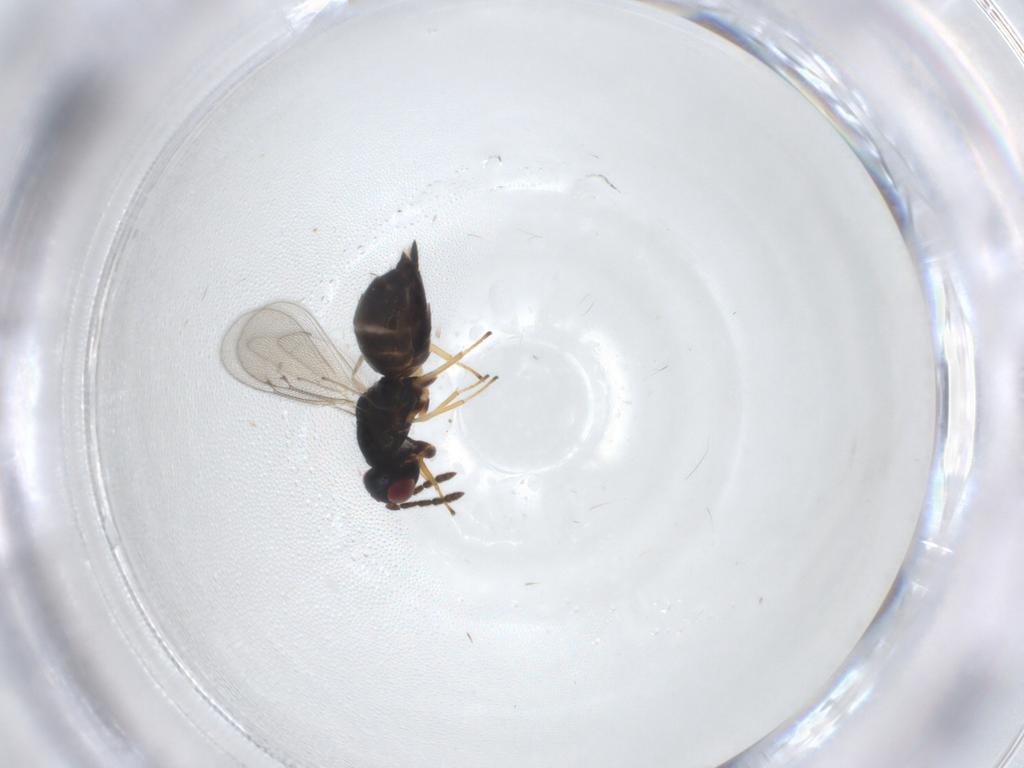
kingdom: Animalia
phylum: Arthropoda
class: Insecta
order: Hymenoptera
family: Eulophidae
